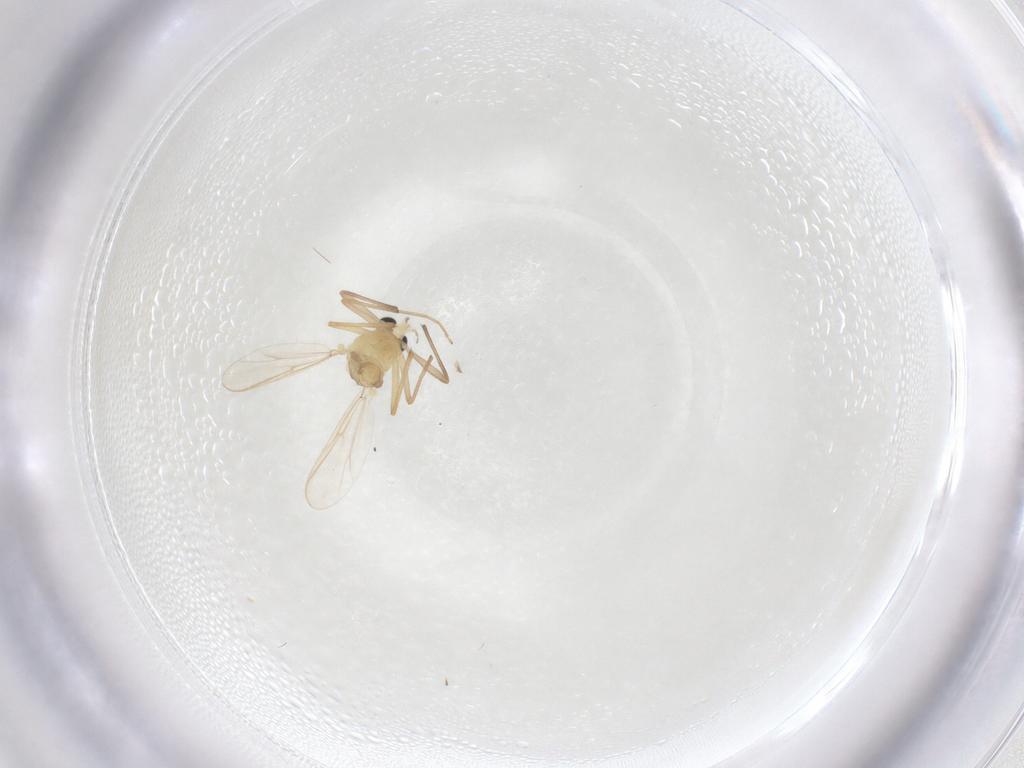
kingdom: Animalia
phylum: Arthropoda
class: Insecta
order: Diptera
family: Chironomidae
